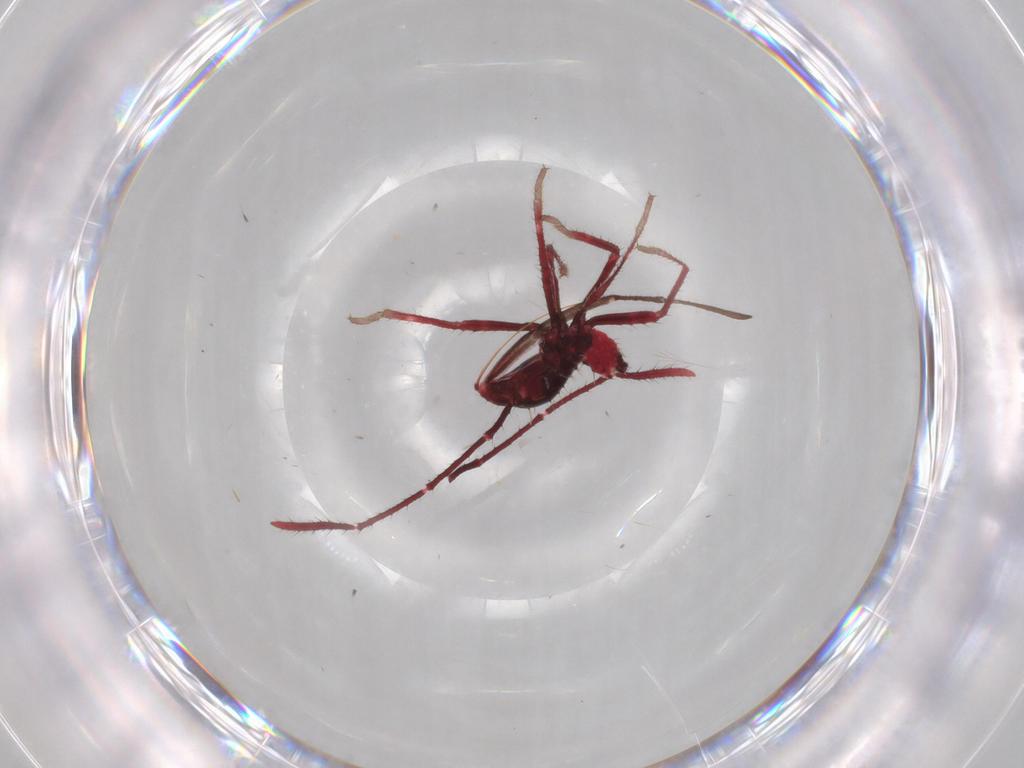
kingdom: Animalia
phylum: Arthropoda
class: Insecta
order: Hemiptera
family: Coreidae
